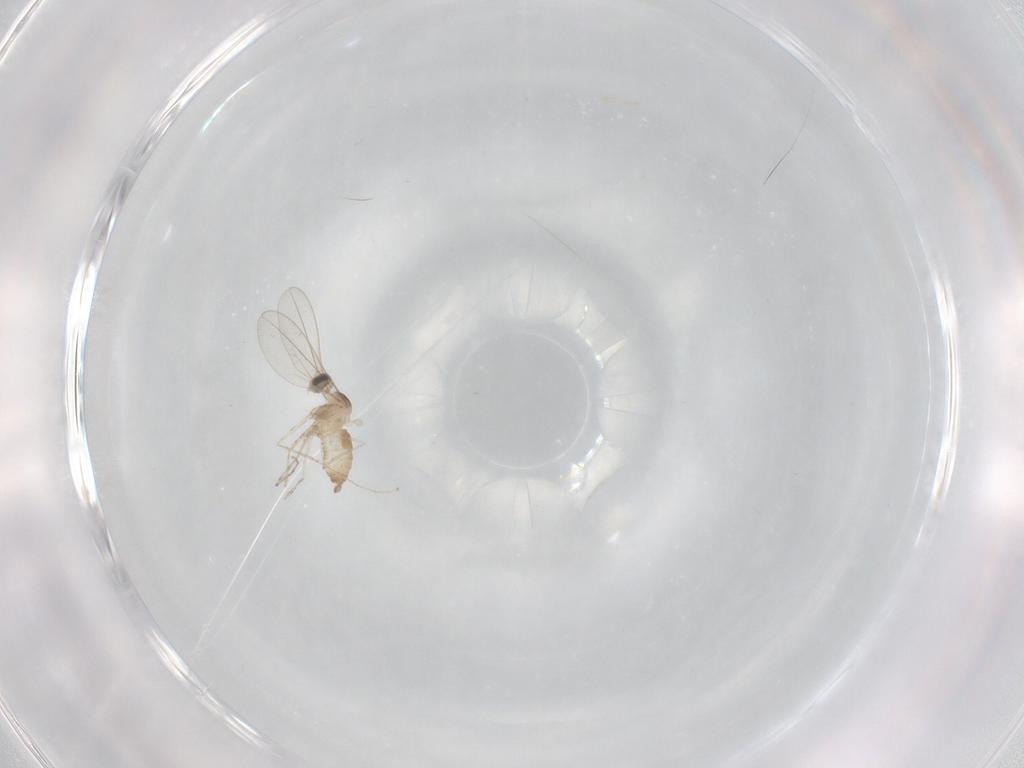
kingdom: Animalia
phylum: Arthropoda
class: Insecta
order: Diptera
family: Cecidomyiidae
